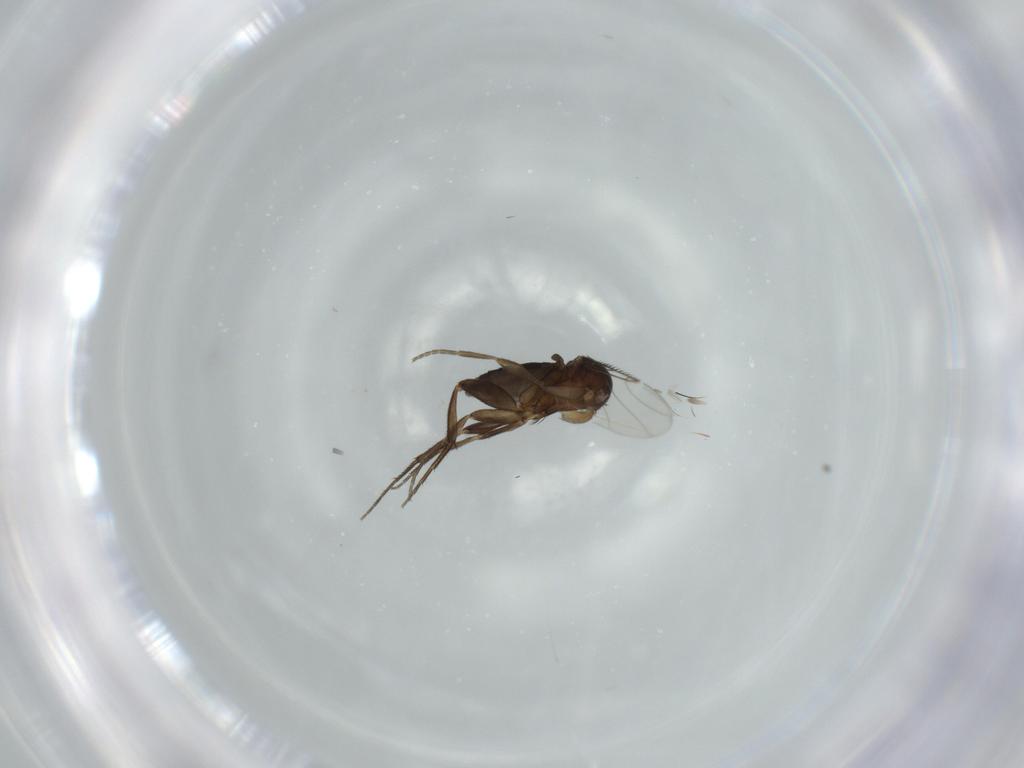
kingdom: Animalia
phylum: Arthropoda
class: Insecta
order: Diptera
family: Phoridae
